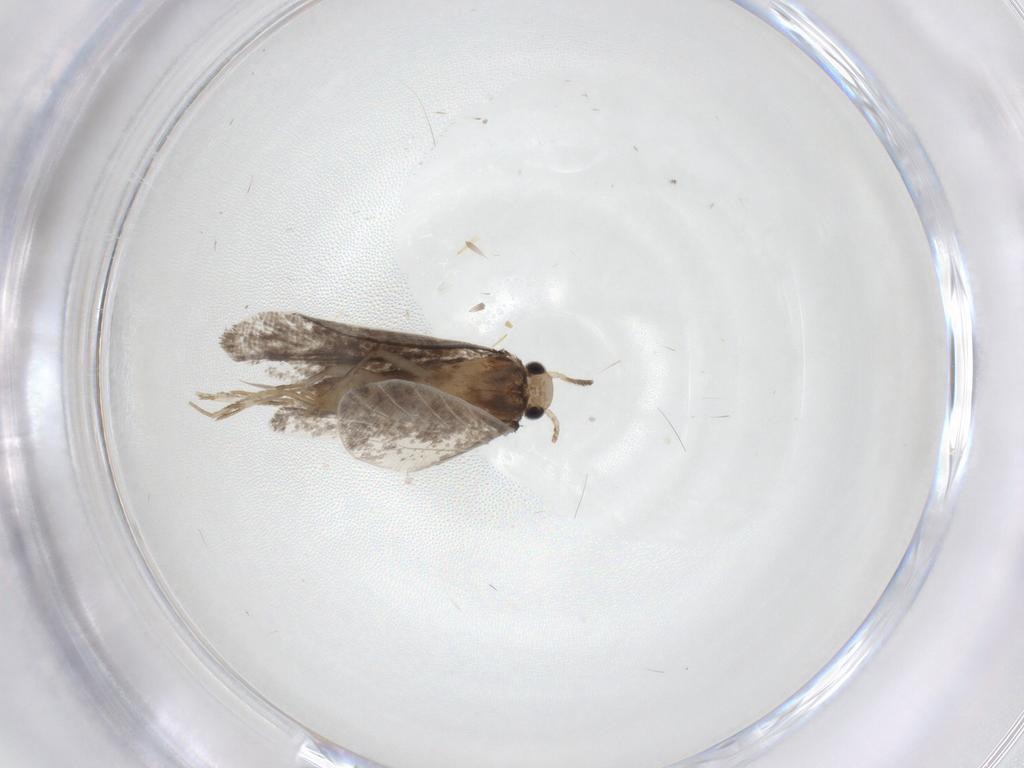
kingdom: Animalia
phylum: Arthropoda
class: Insecta
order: Lepidoptera
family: Psychidae
